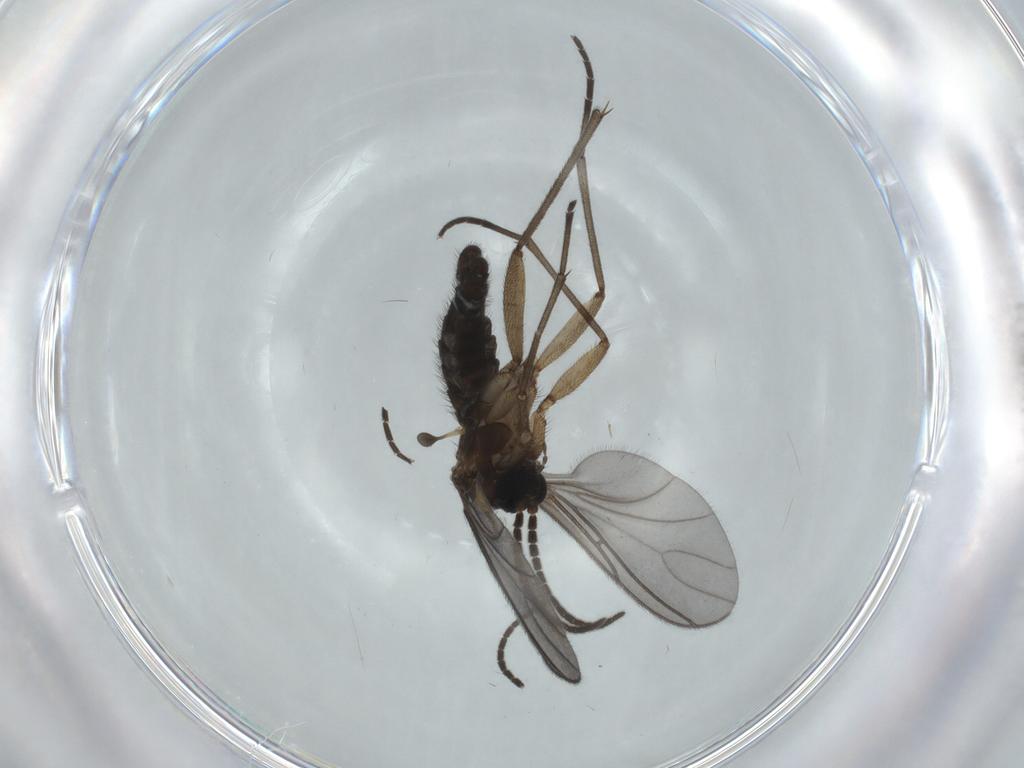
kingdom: Animalia
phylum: Arthropoda
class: Insecta
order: Diptera
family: Sciaridae
